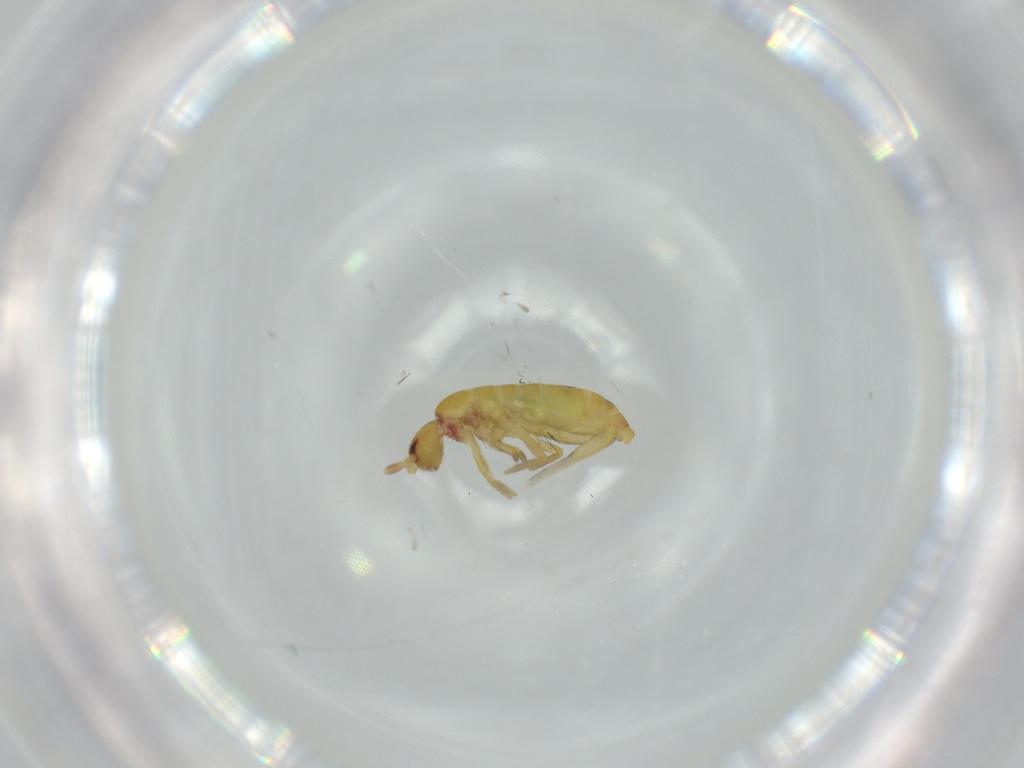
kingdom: Animalia
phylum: Arthropoda
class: Collembola
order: Entomobryomorpha
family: Tomoceridae
